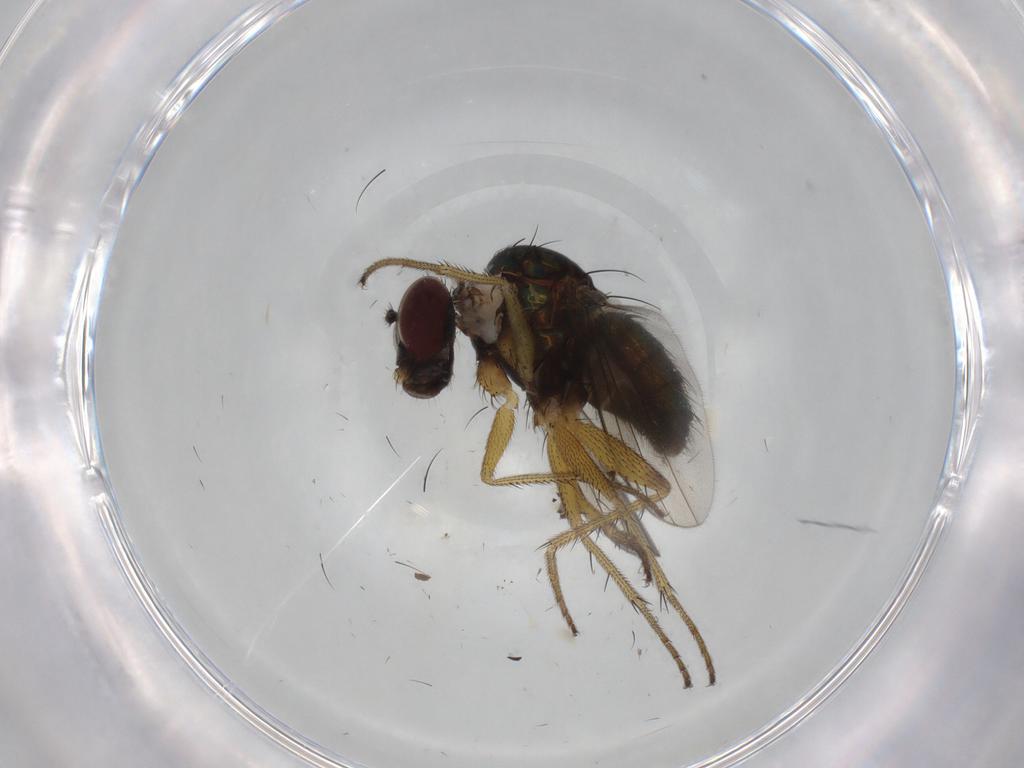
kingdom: Animalia
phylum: Arthropoda
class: Insecta
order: Diptera
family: Dolichopodidae
